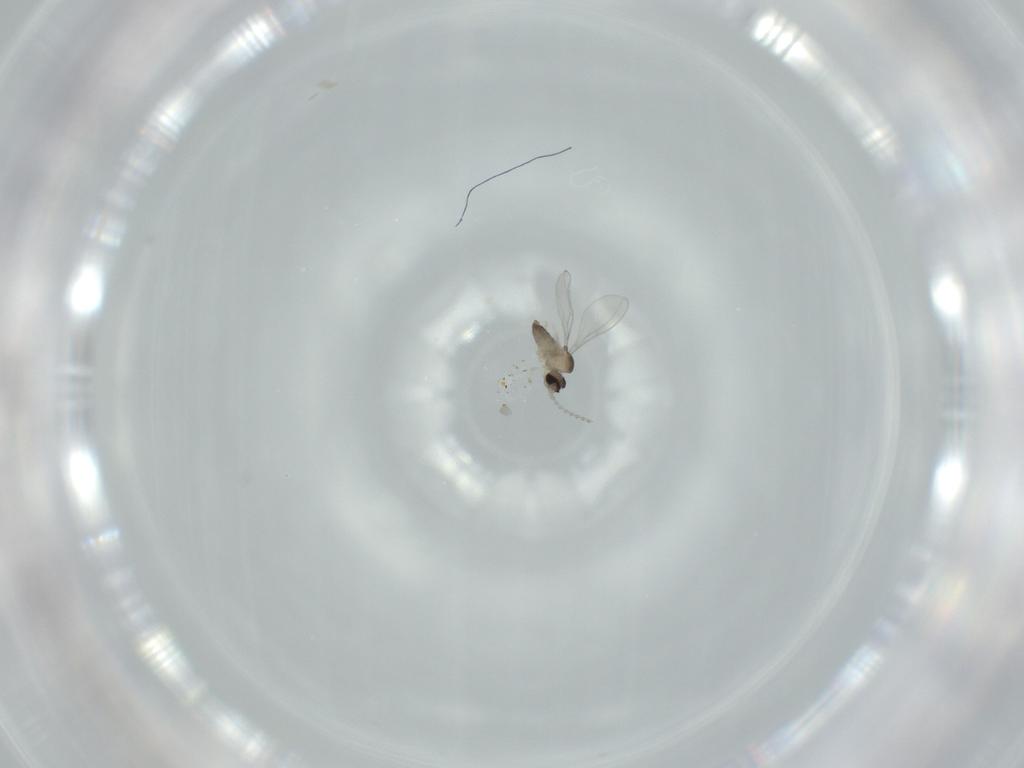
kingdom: Animalia
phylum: Arthropoda
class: Insecta
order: Diptera
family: Cecidomyiidae
